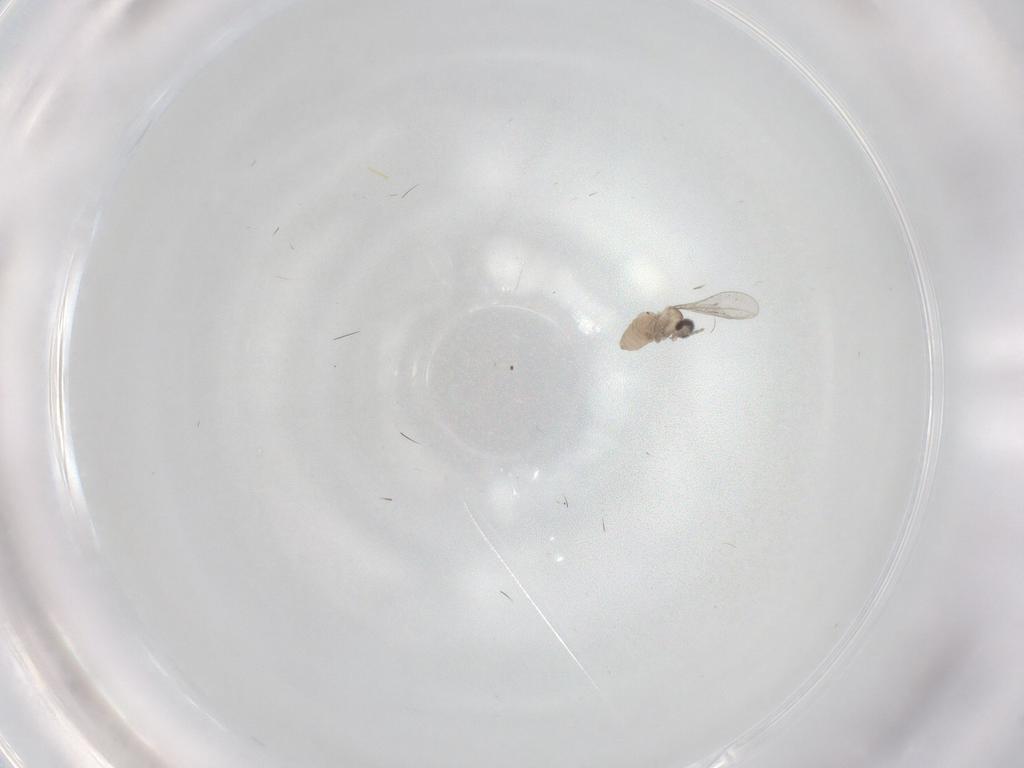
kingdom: Animalia
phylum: Arthropoda
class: Insecta
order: Diptera
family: Cecidomyiidae
